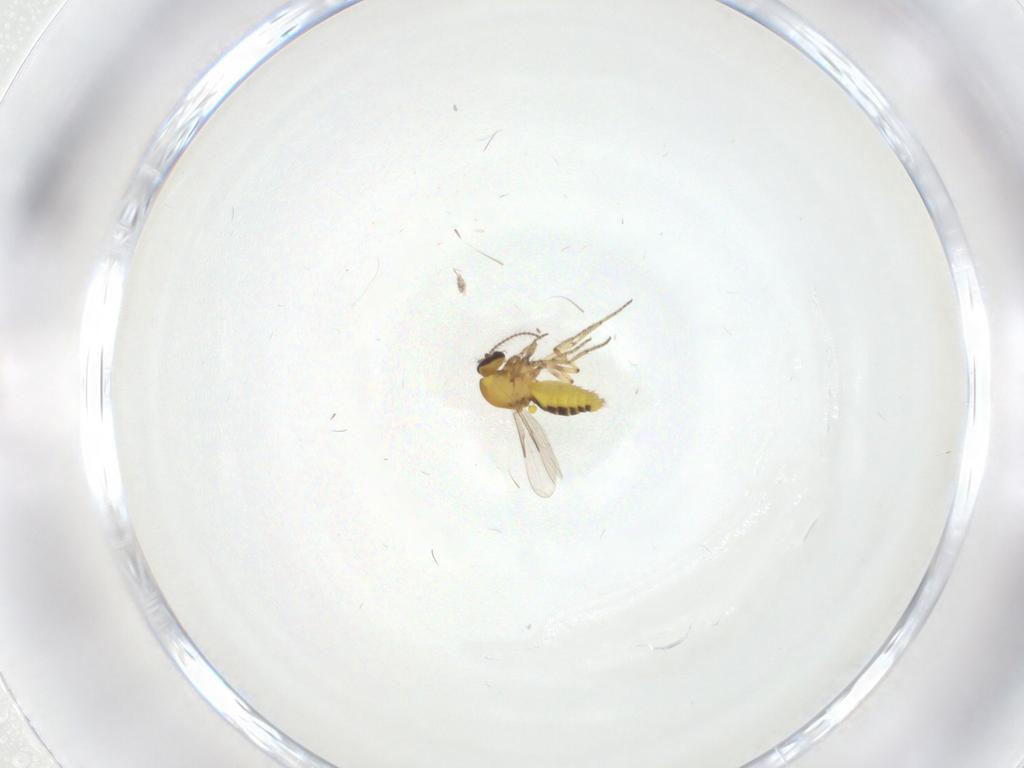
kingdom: Animalia
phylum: Arthropoda
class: Insecta
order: Diptera
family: Ceratopogonidae
